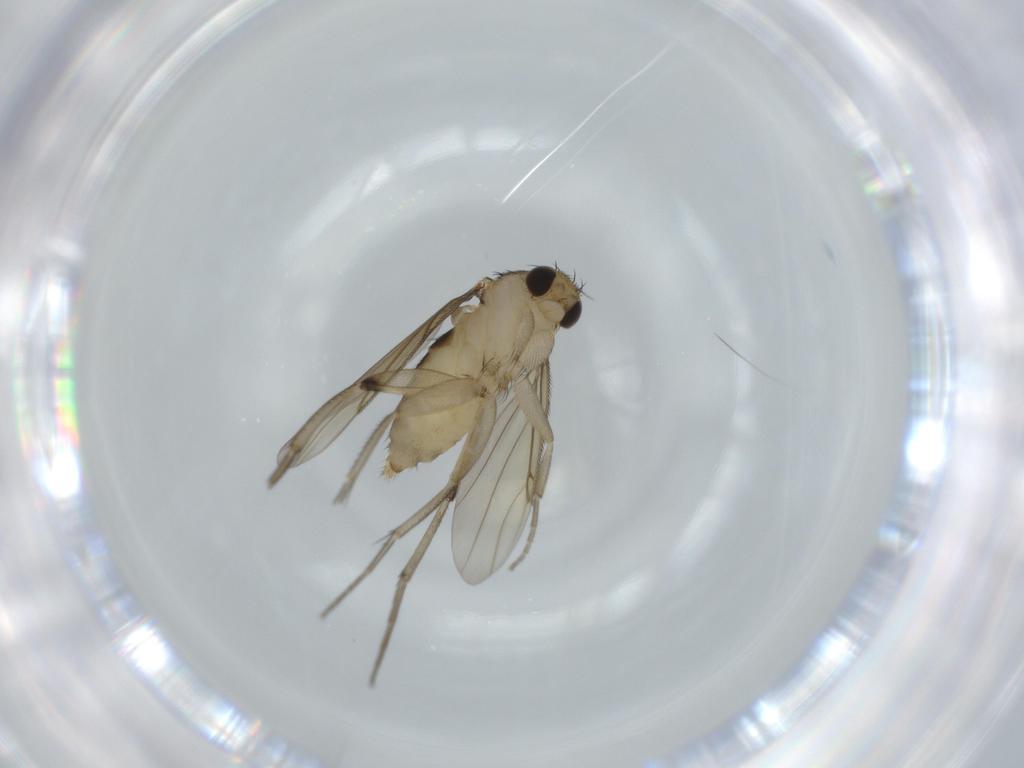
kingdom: Animalia
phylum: Arthropoda
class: Insecta
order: Diptera
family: Phoridae
